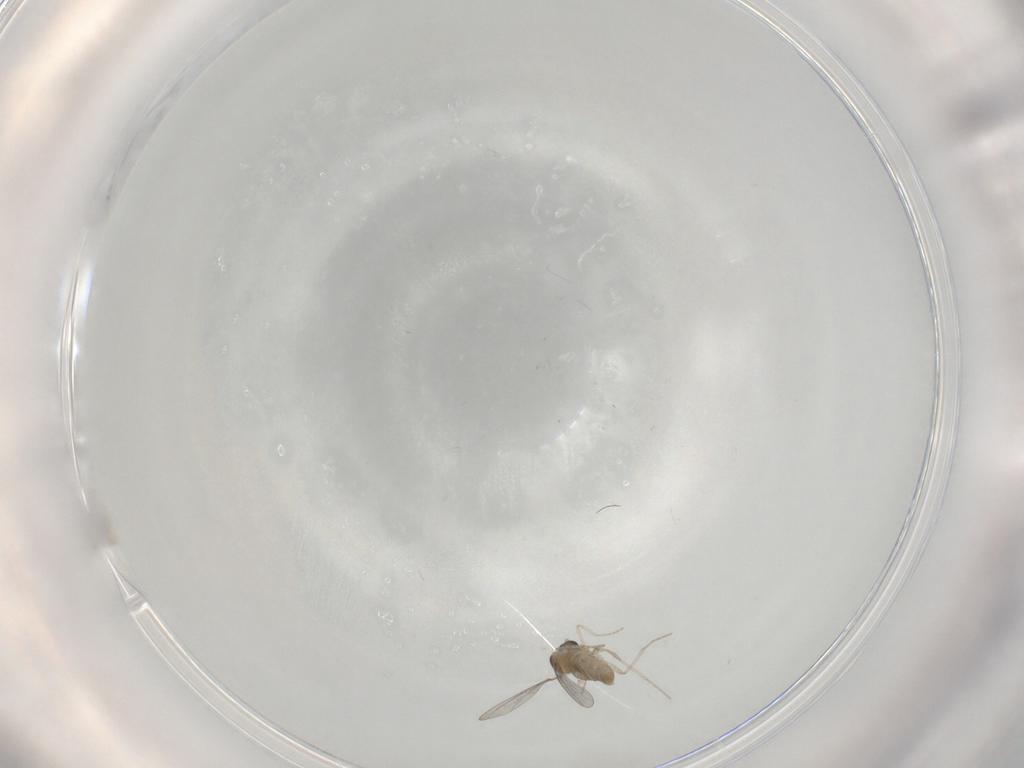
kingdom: Animalia
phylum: Arthropoda
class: Insecta
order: Diptera
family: Cecidomyiidae
